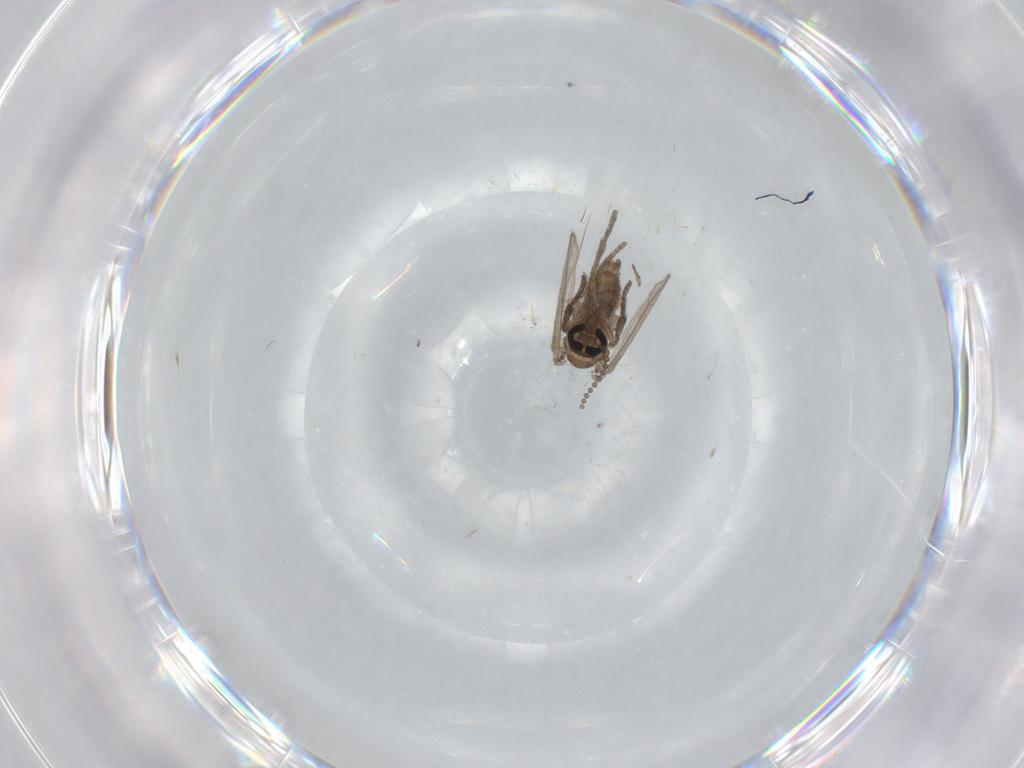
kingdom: Animalia
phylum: Arthropoda
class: Insecta
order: Diptera
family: Psychodidae
